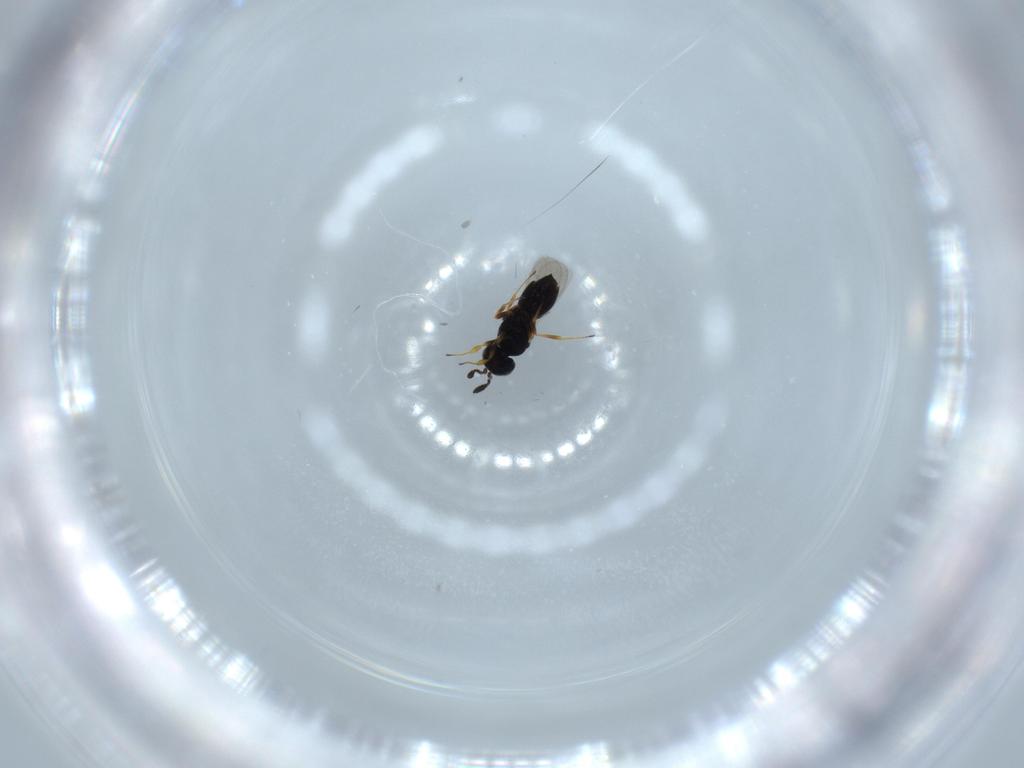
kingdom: Animalia
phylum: Arthropoda
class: Insecta
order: Hymenoptera
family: Scelionidae
